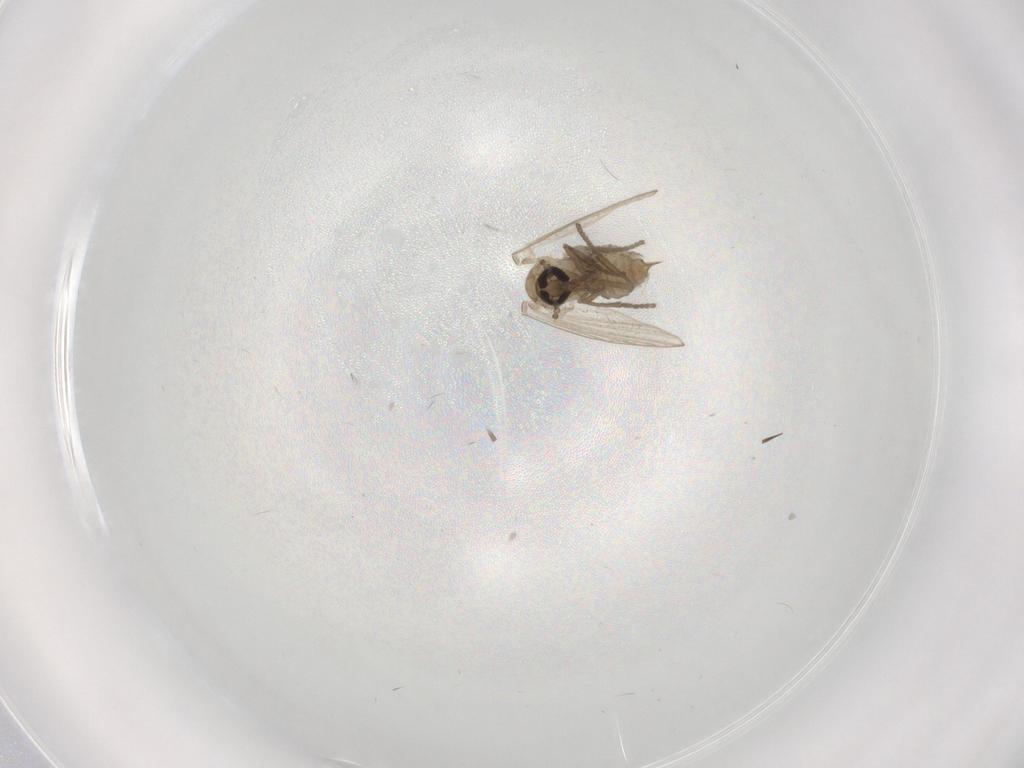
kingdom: Animalia
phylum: Arthropoda
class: Insecta
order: Diptera
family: Psychodidae
